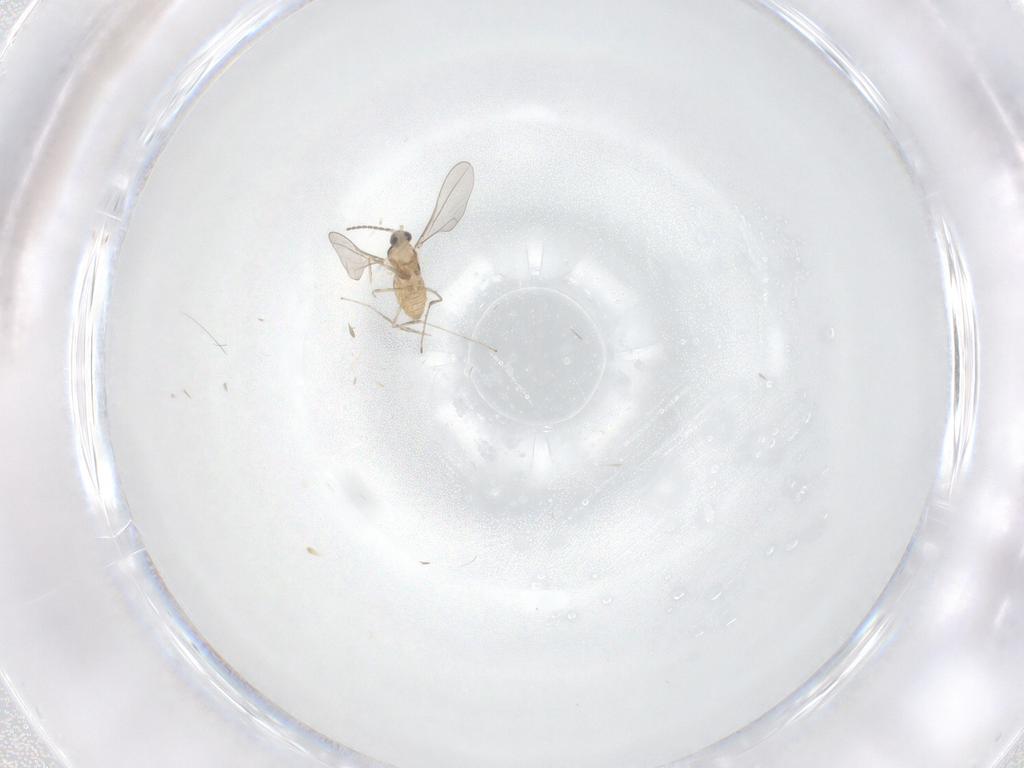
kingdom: Animalia
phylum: Arthropoda
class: Insecta
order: Diptera
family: Cecidomyiidae
